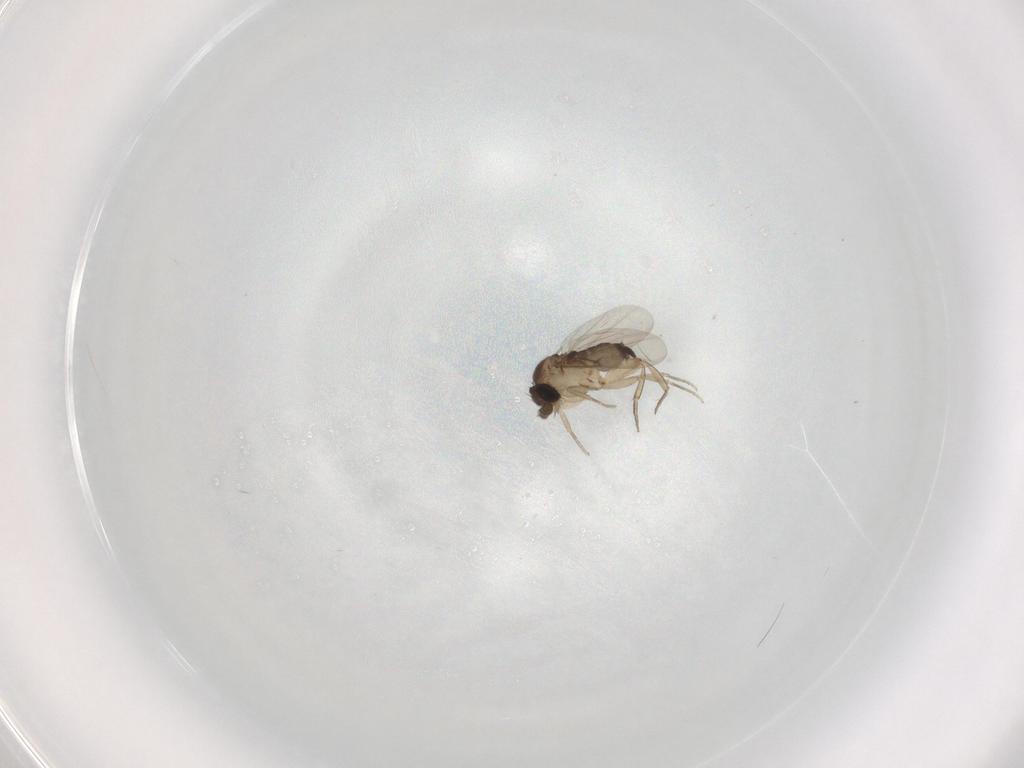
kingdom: Animalia
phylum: Arthropoda
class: Insecta
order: Diptera
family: Phoridae
